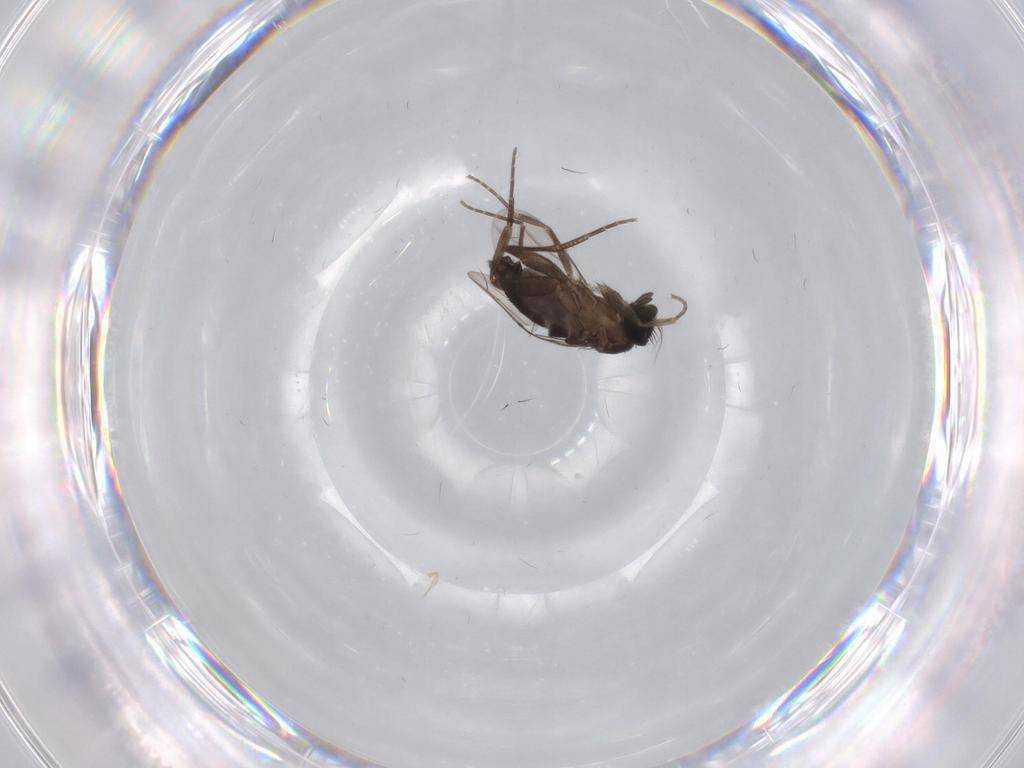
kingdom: Animalia
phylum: Arthropoda
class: Insecta
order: Diptera
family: Phoridae
